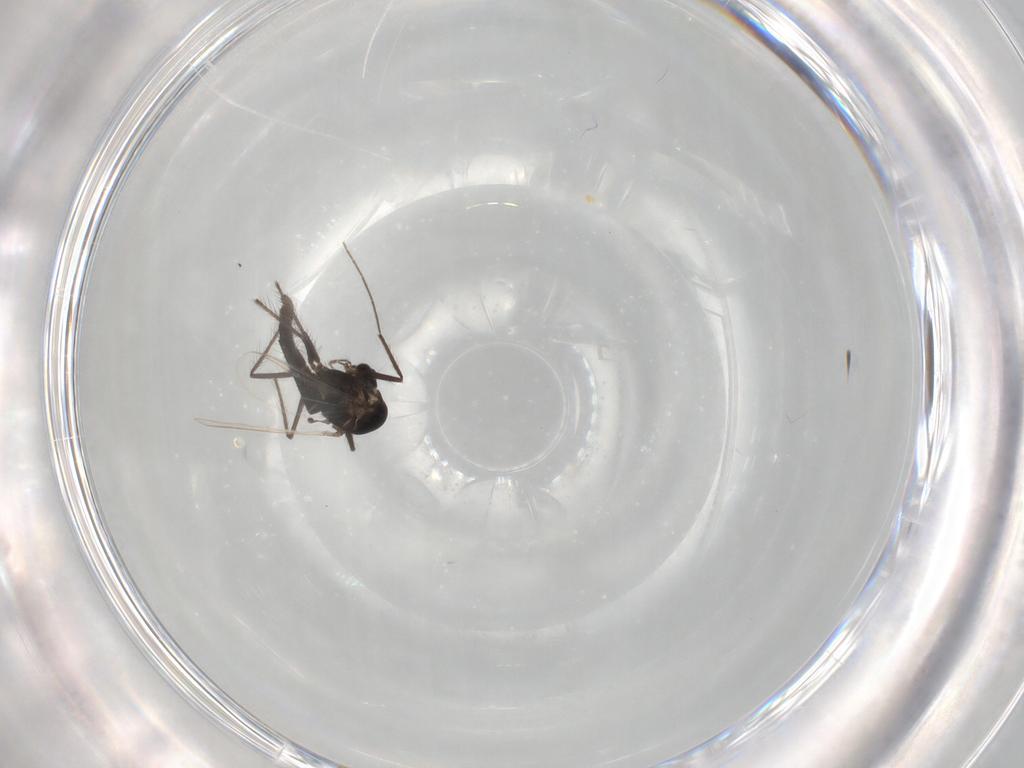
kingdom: Animalia
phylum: Arthropoda
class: Insecta
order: Diptera
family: Chironomidae
